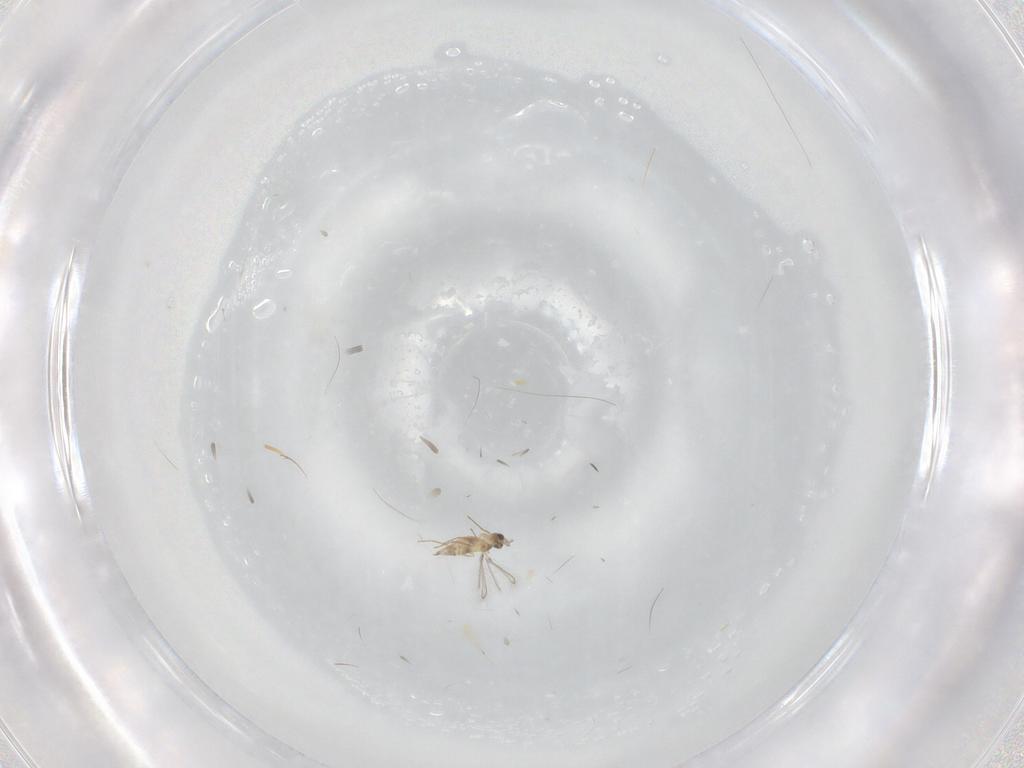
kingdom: Animalia
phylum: Arthropoda
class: Insecta
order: Hymenoptera
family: Mymaridae
